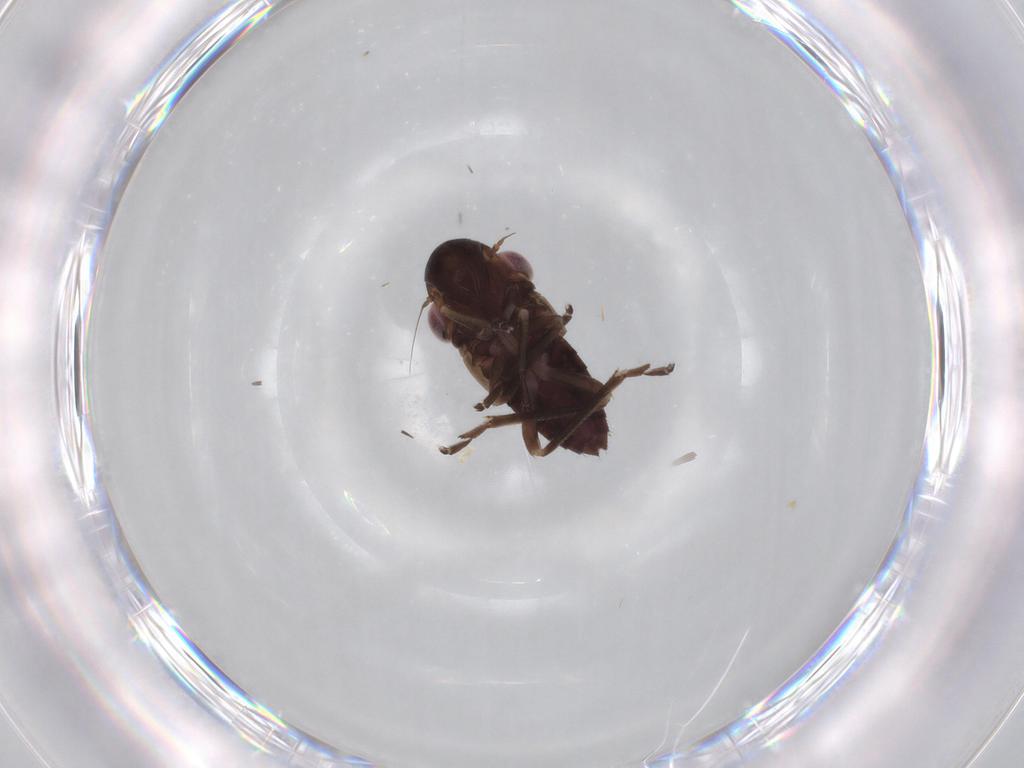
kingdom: Animalia
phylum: Arthropoda
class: Insecta
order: Hemiptera
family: Cicadellidae
